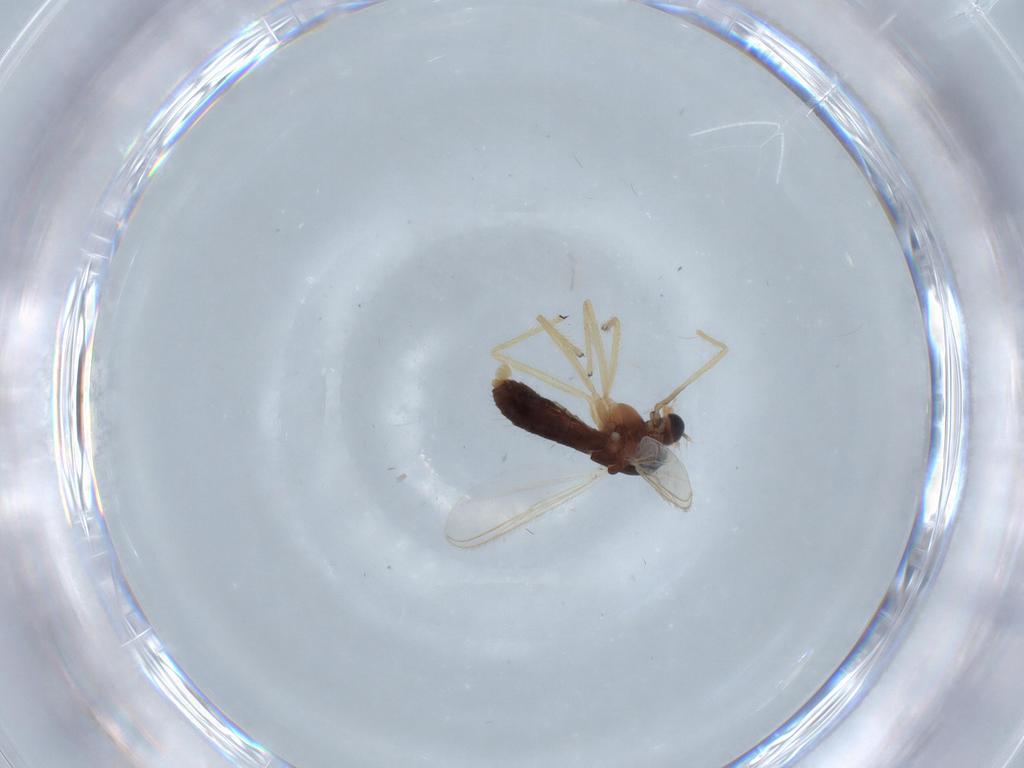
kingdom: Animalia
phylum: Arthropoda
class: Insecta
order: Diptera
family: Chironomidae
